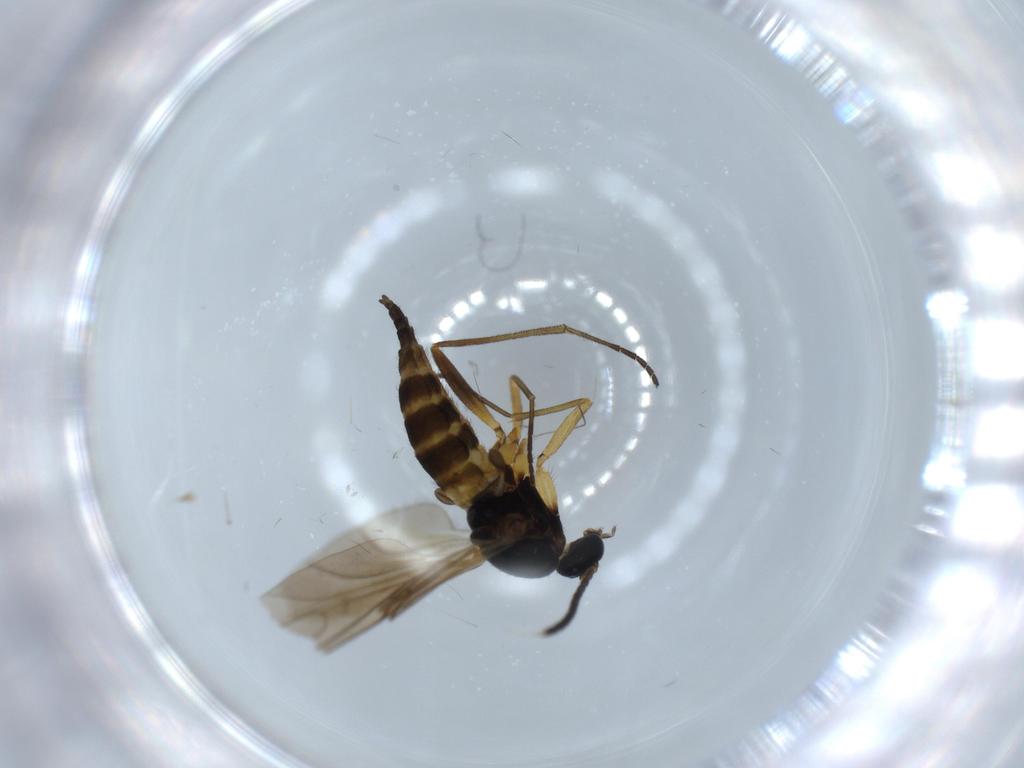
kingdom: Animalia
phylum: Arthropoda
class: Insecta
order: Diptera
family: Sciaridae
